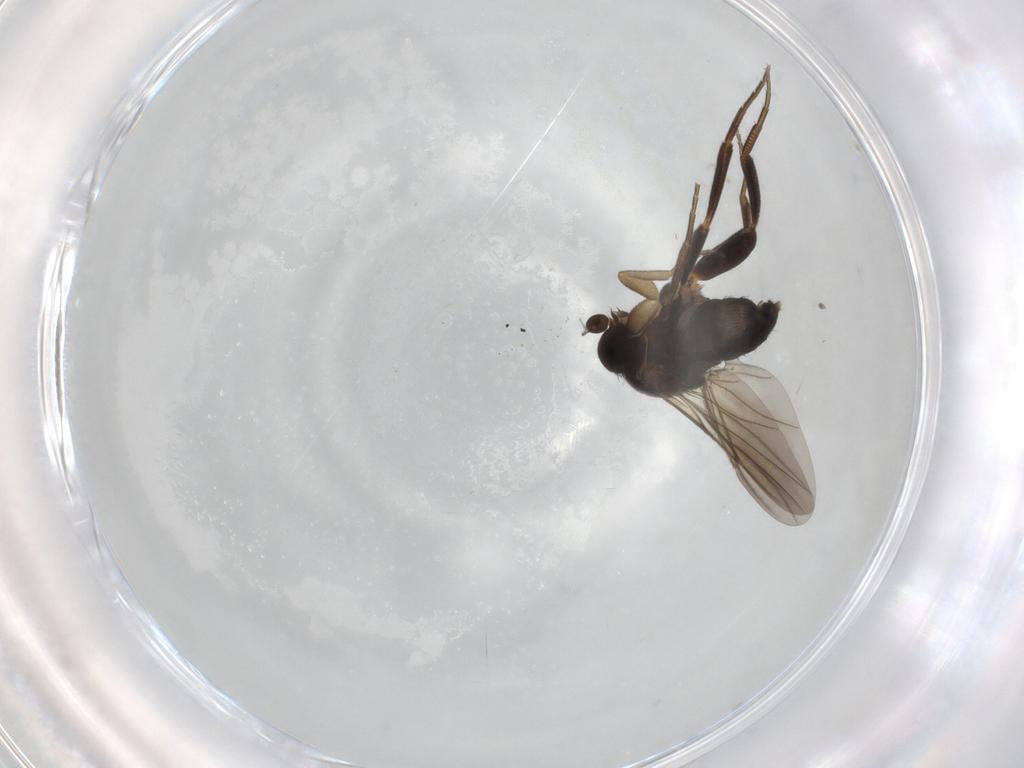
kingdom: Animalia
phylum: Arthropoda
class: Insecta
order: Diptera
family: Phoridae
